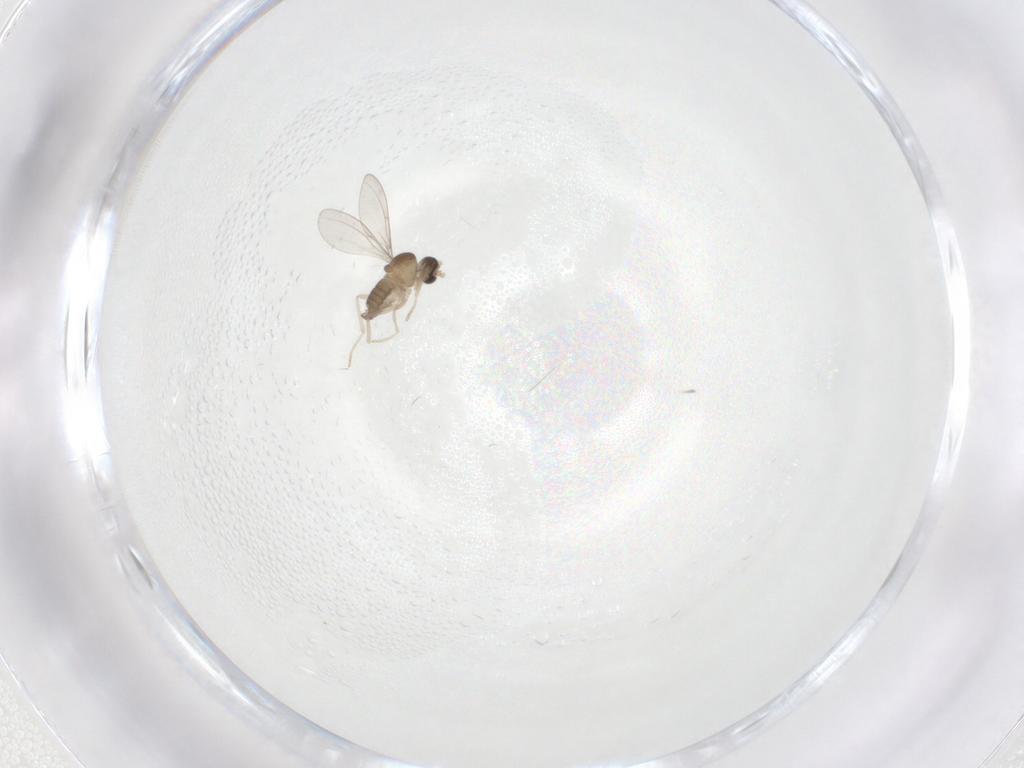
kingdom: Animalia
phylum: Arthropoda
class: Insecta
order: Diptera
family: Cecidomyiidae
